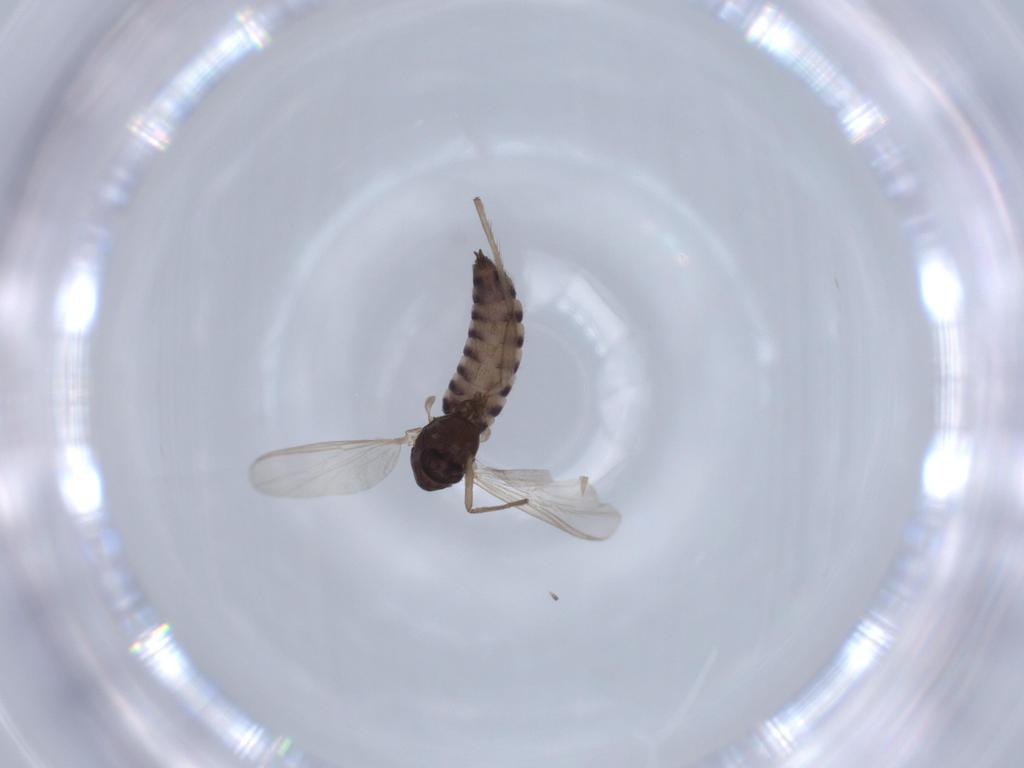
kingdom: Animalia
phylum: Arthropoda
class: Insecta
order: Diptera
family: Chironomidae
